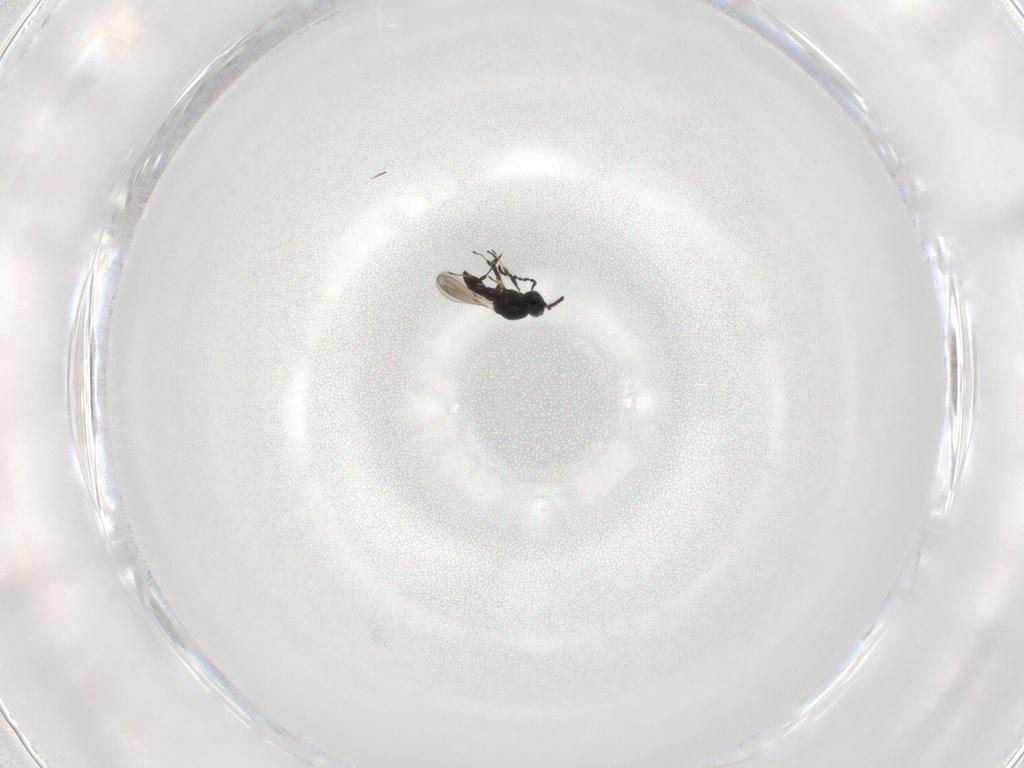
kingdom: Animalia
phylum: Arthropoda
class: Insecta
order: Hymenoptera
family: Platygastridae
